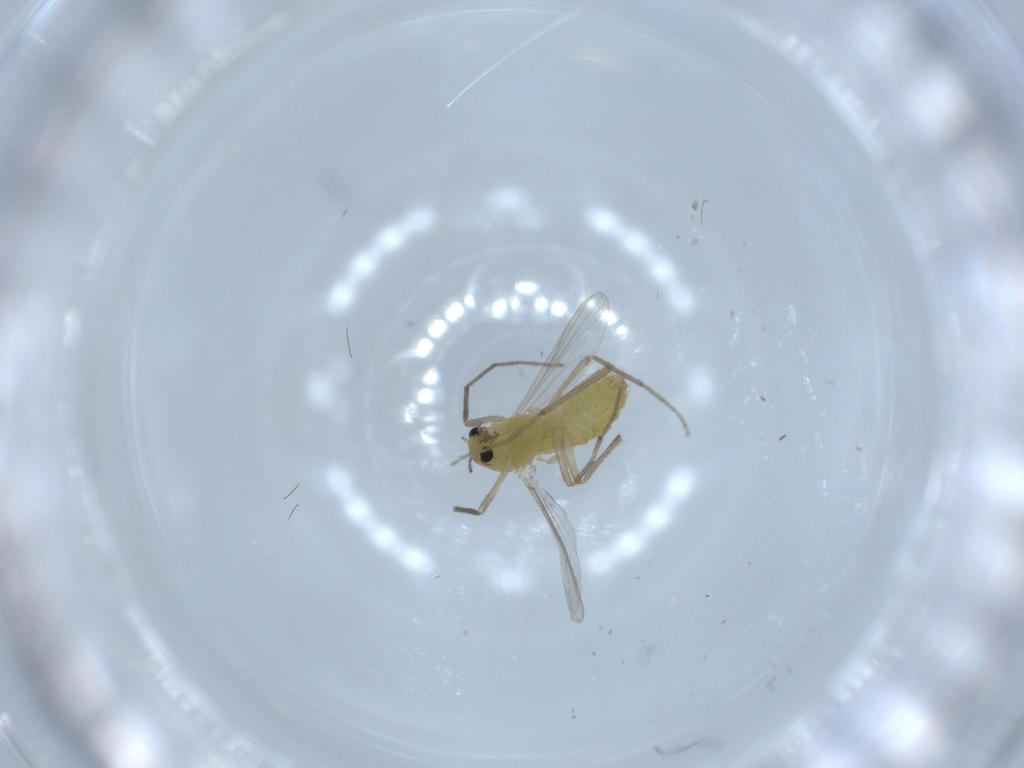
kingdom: Animalia
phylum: Arthropoda
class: Insecta
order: Diptera
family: Chironomidae
